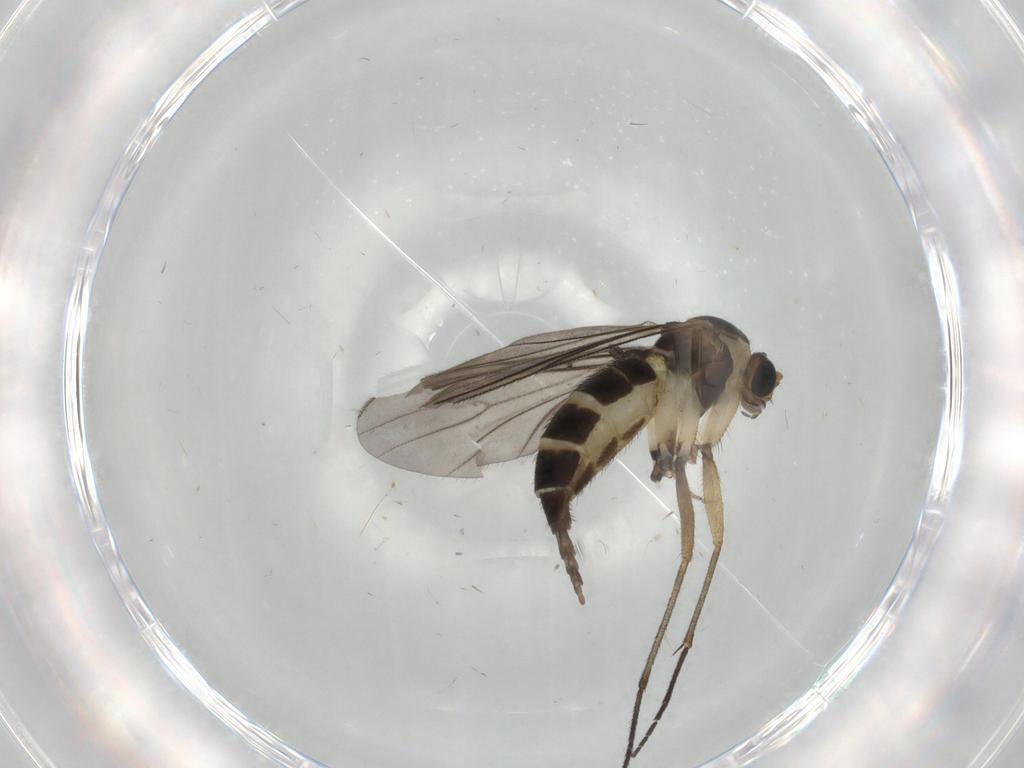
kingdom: Animalia
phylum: Arthropoda
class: Insecta
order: Diptera
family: Sciaridae
